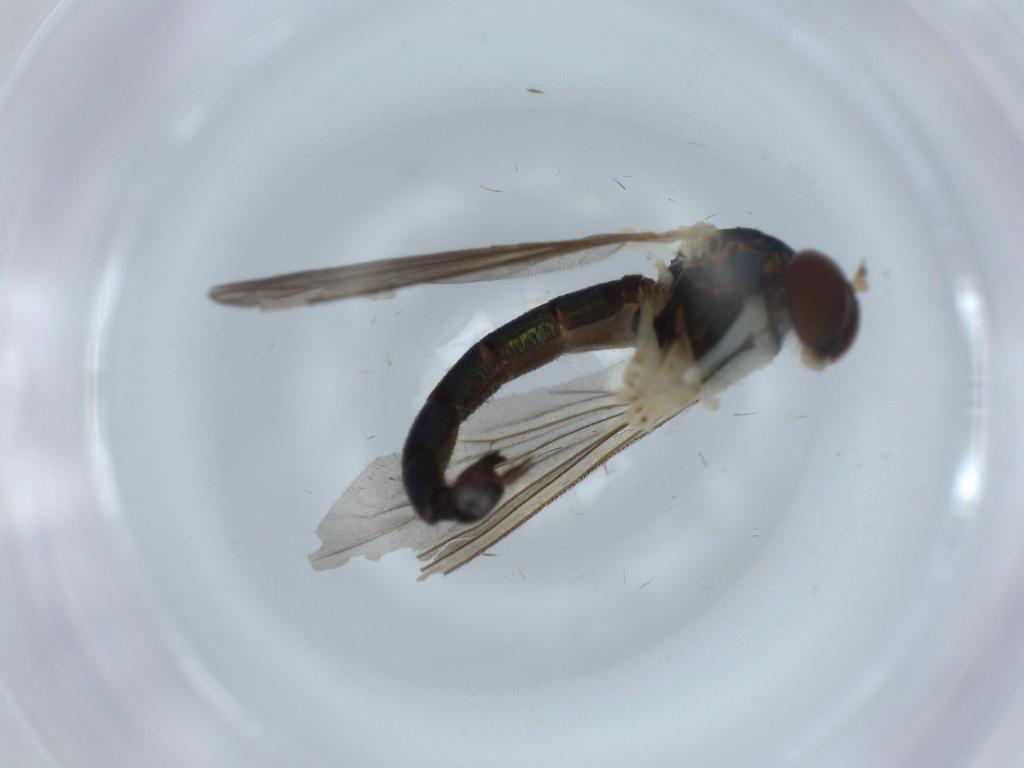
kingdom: Animalia
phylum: Arthropoda
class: Insecta
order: Diptera
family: Dolichopodidae
